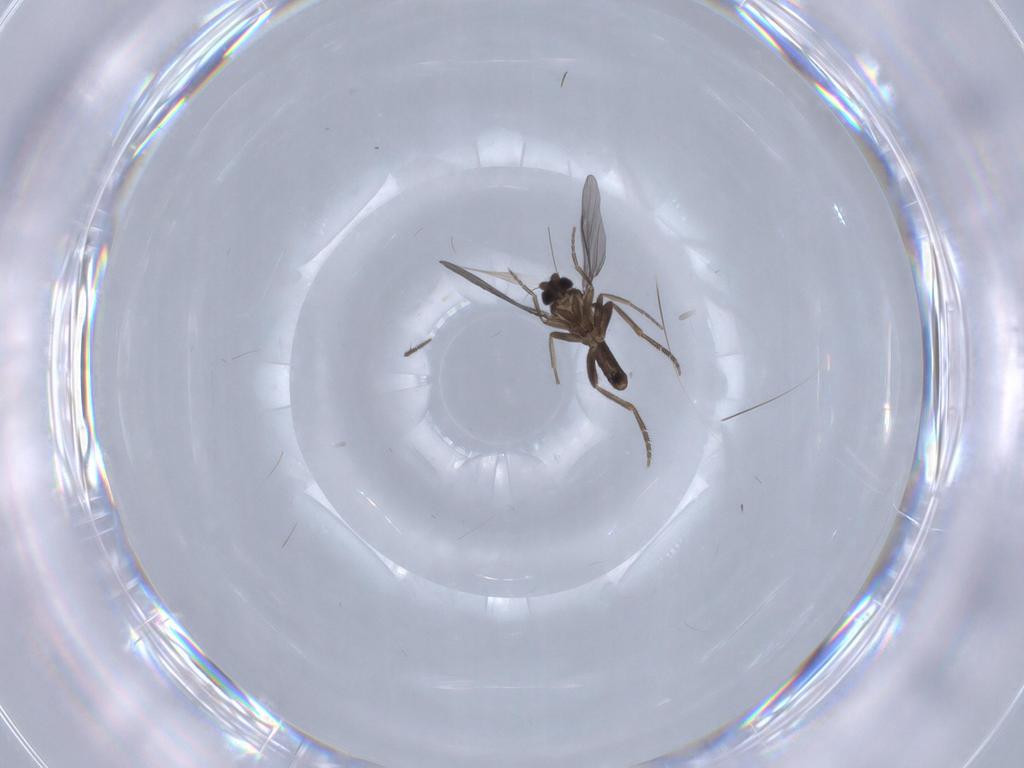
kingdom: Animalia
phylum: Arthropoda
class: Insecta
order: Diptera
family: Phoridae
